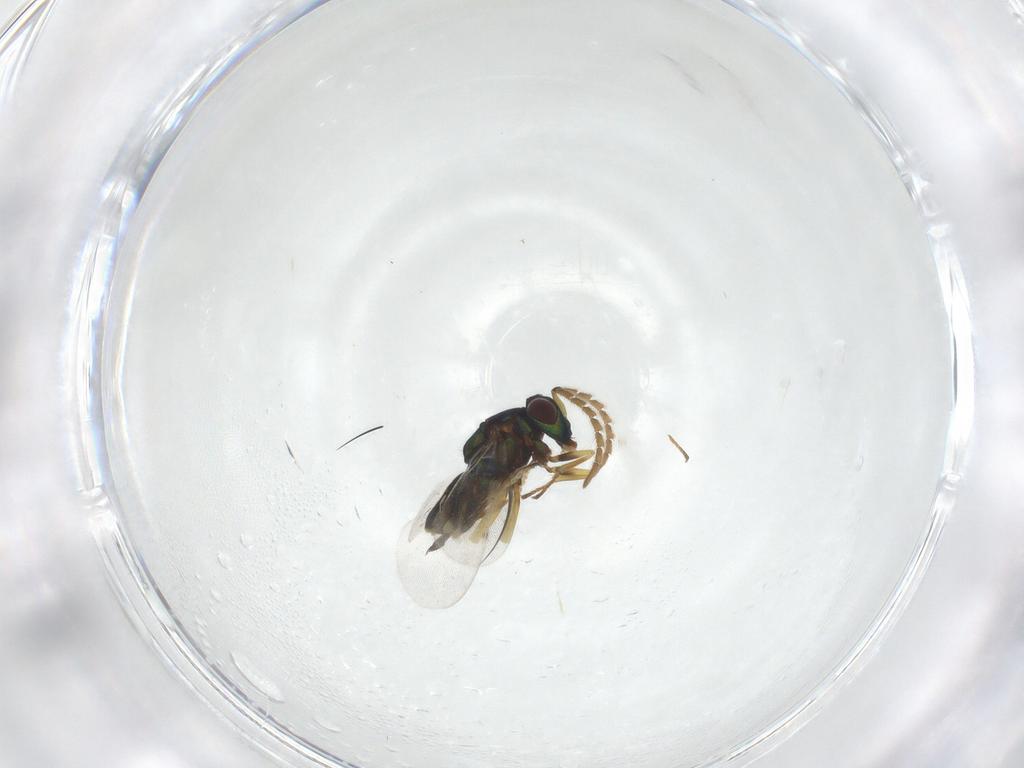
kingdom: Animalia
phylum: Arthropoda
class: Insecta
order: Hymenoptera
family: Encyrtidae
